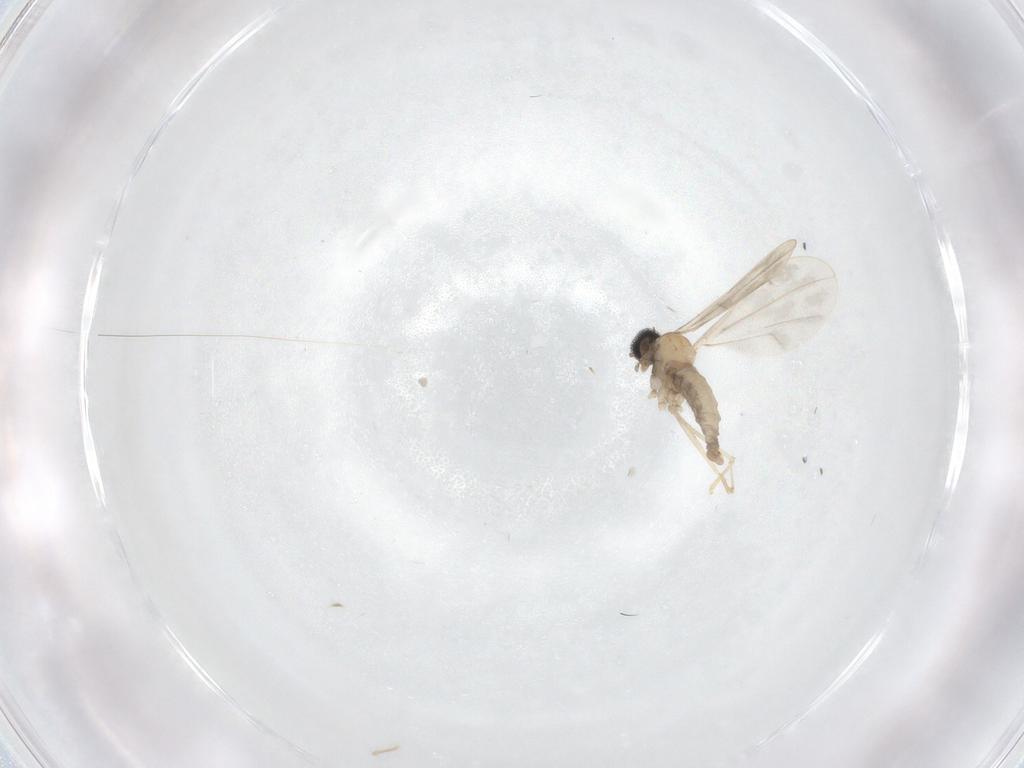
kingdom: Animalia
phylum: Arthropoda
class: Insecta
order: Diptera
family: Cecidomyiidae
